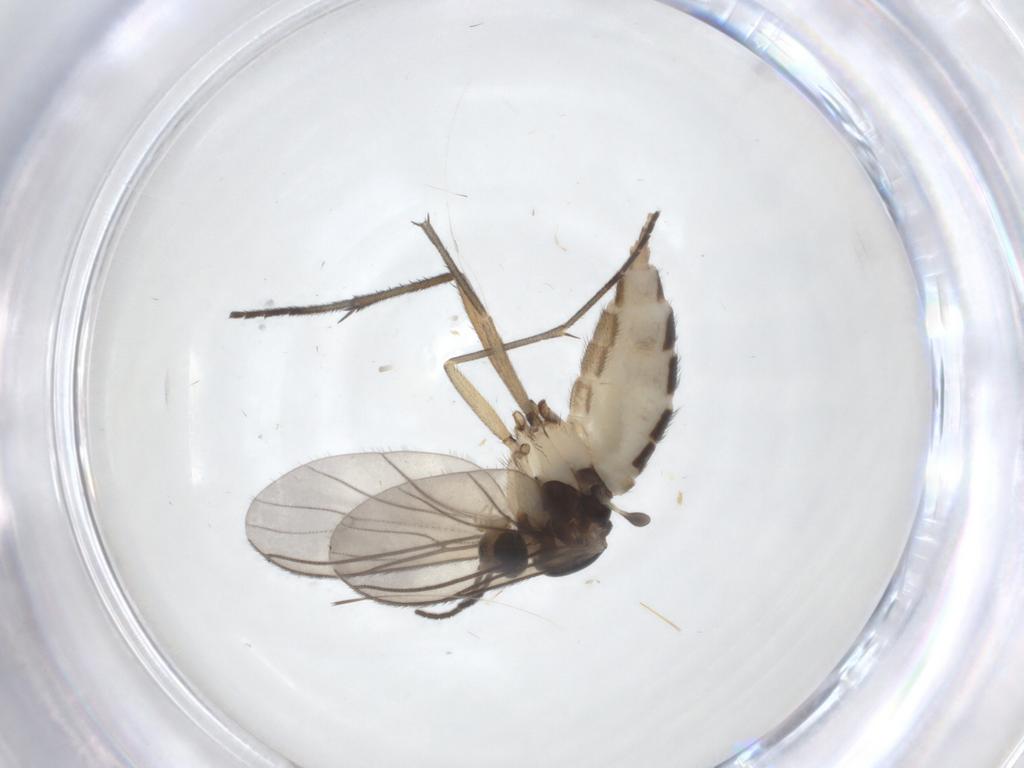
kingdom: Animalia
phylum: Arthropoda
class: Insecta
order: Diptera
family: Sciaridae
